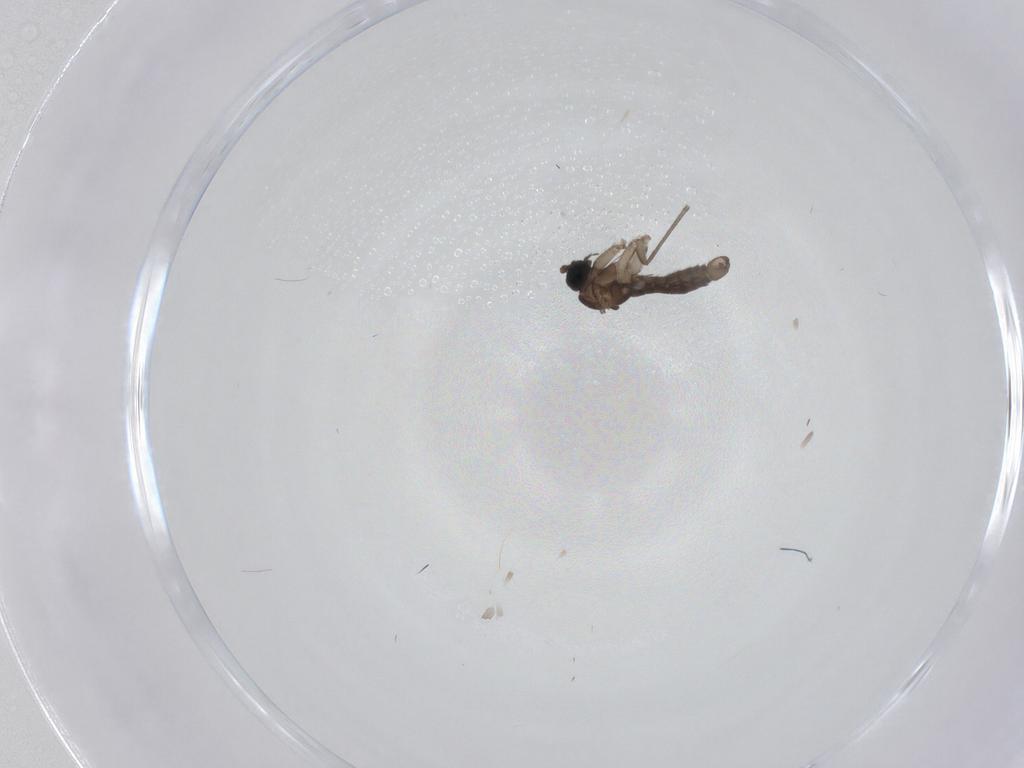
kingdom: Animalia
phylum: Arthropoda
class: Insecta
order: Diptera
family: Sciaridae
